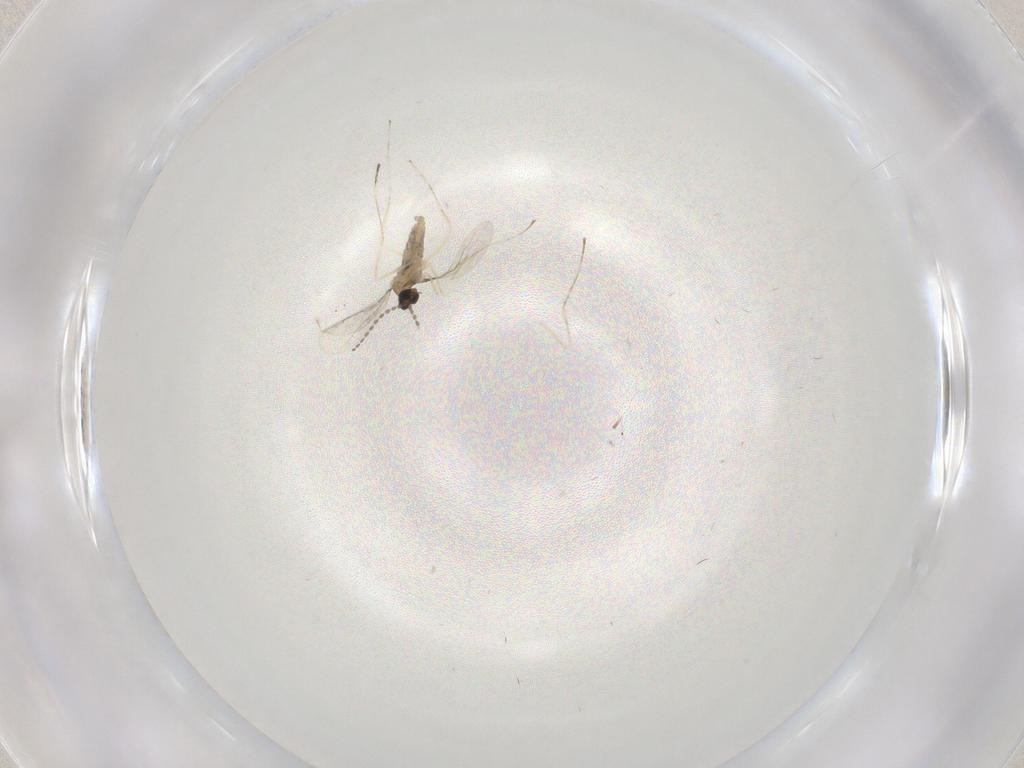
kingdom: Animalia
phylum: Arthropoda
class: Insecta
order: Diptera
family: Cecidomyiidae
